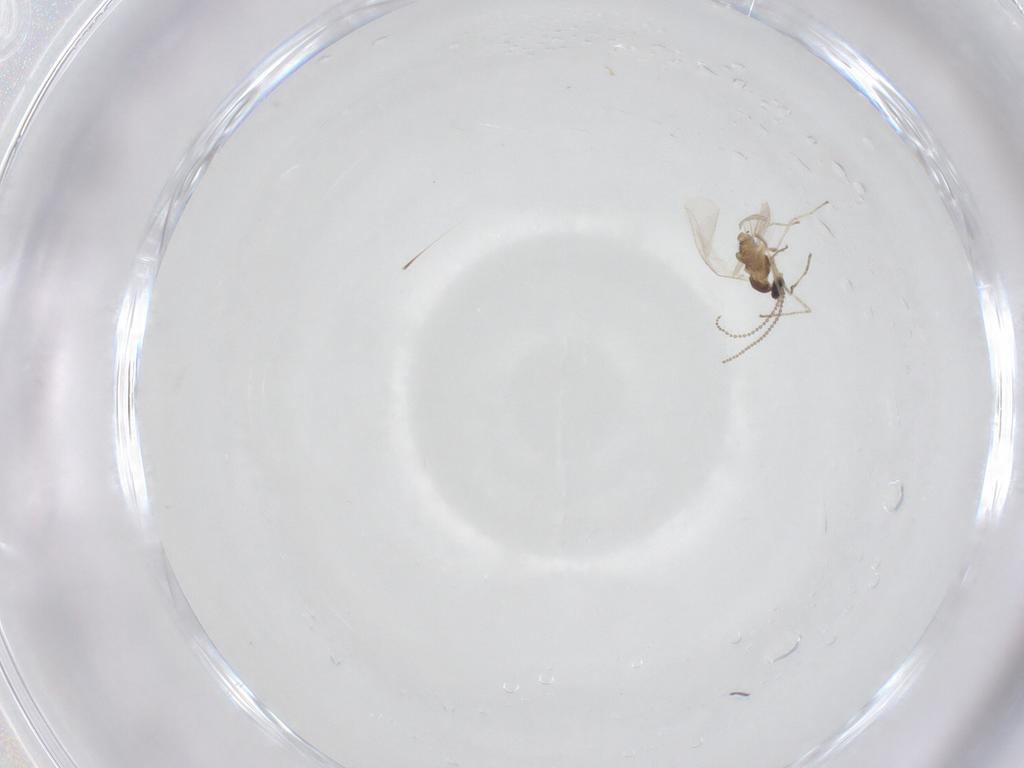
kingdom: Animalia
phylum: Arthropoda
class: Insecta
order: Diptera
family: Cecidomyiidae
